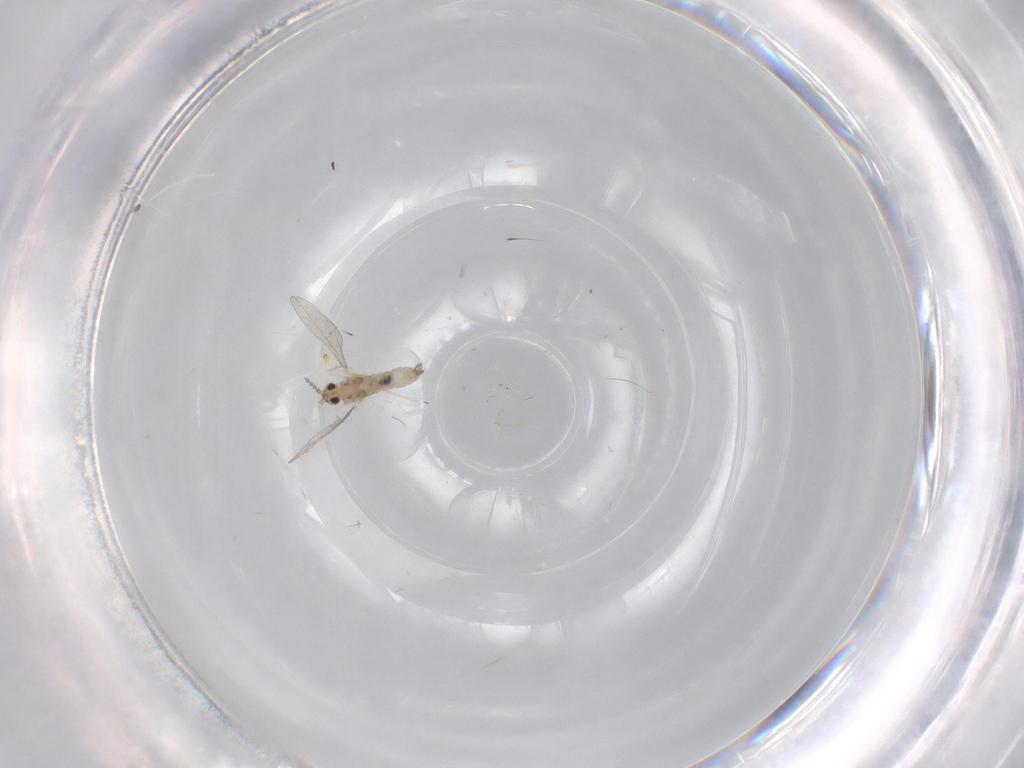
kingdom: Animalia
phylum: Arthropoda
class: Insecta
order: Diptera
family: Cecidomyiidae
